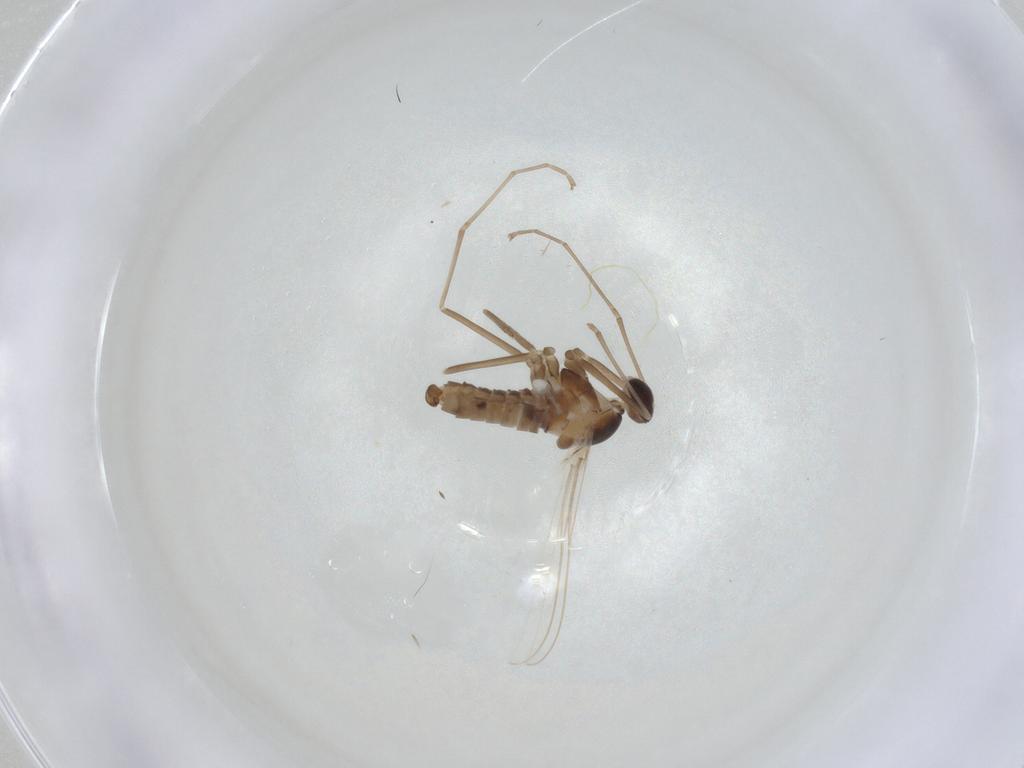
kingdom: Animalia
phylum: Arthropoda
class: Insecta
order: Diptera
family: Cecidomyiidae
